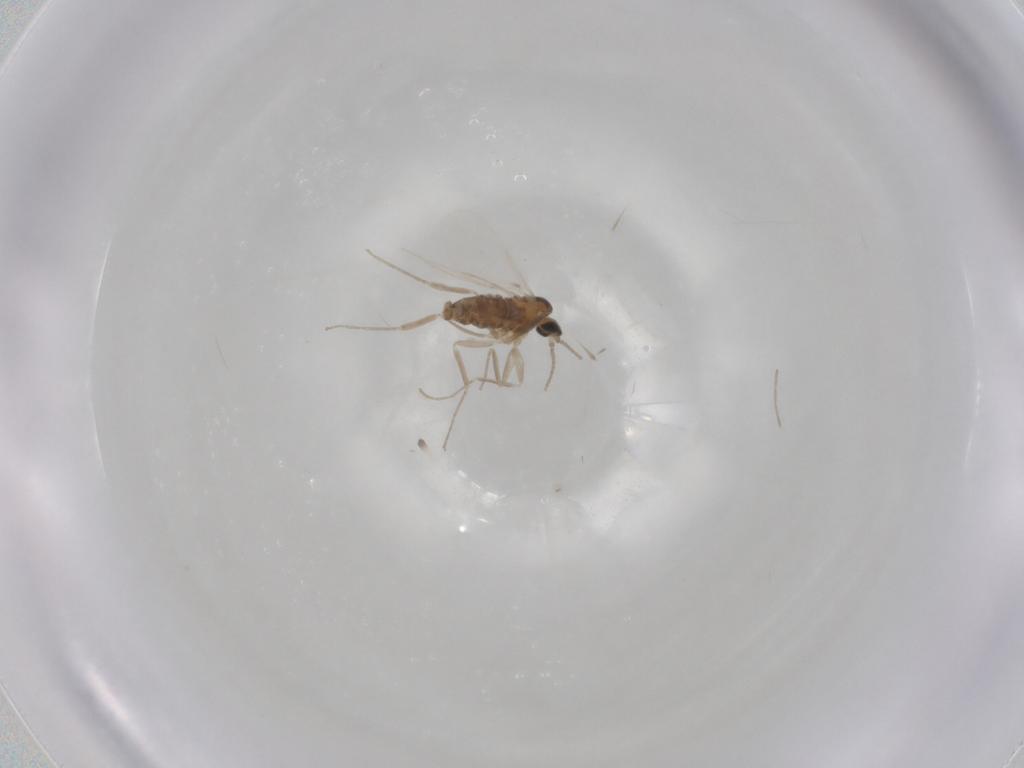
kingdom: Animalia
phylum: Arthropoda
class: Insecta
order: Diptera
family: Cecidomyiidae
